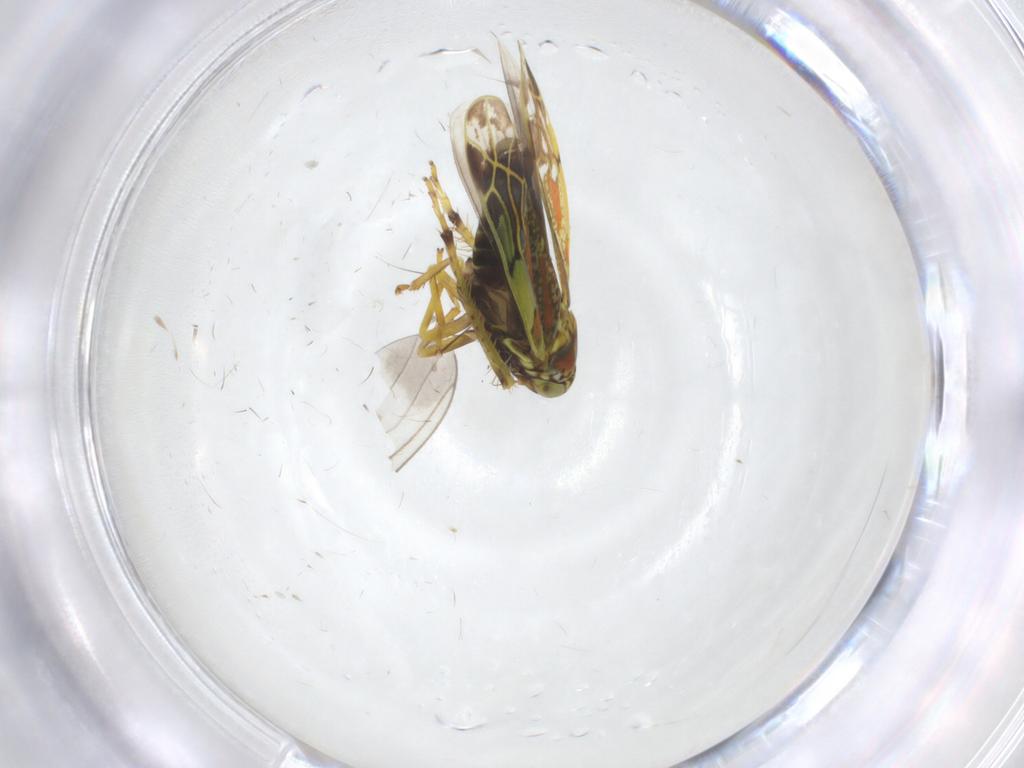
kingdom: Animalia
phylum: Arthropoda
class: Insecta
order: Hemiptera
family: Cicadellidae
